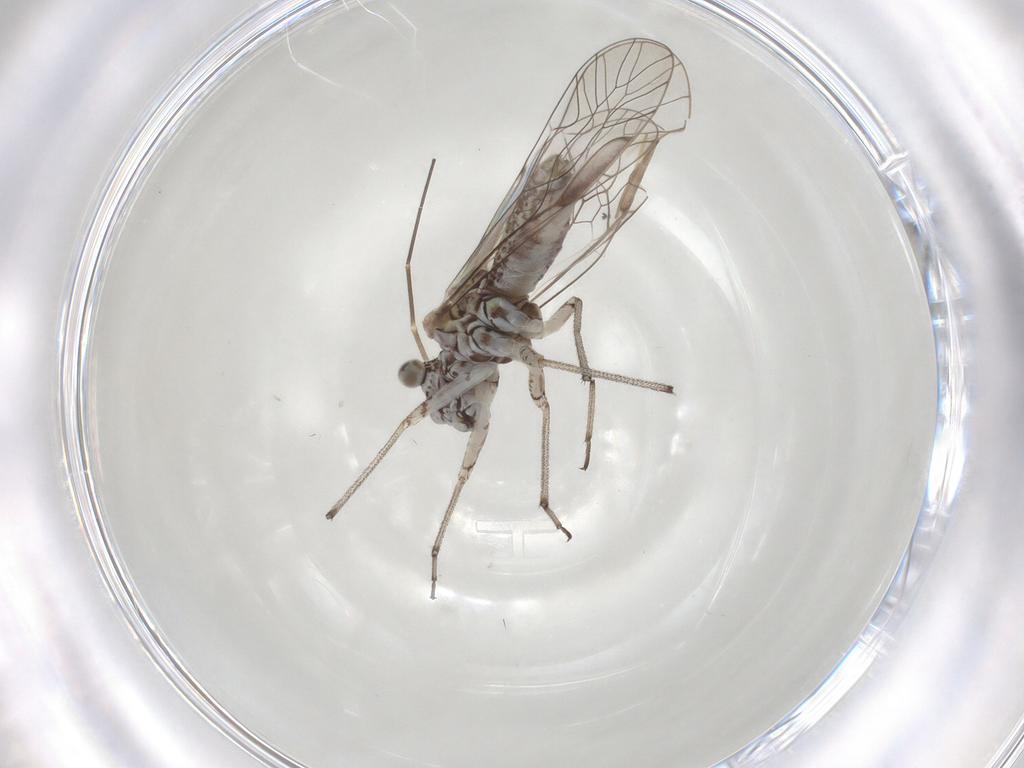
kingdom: Animalia
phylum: Arthropoda
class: Insecta
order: Psocodea
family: Psocidae
